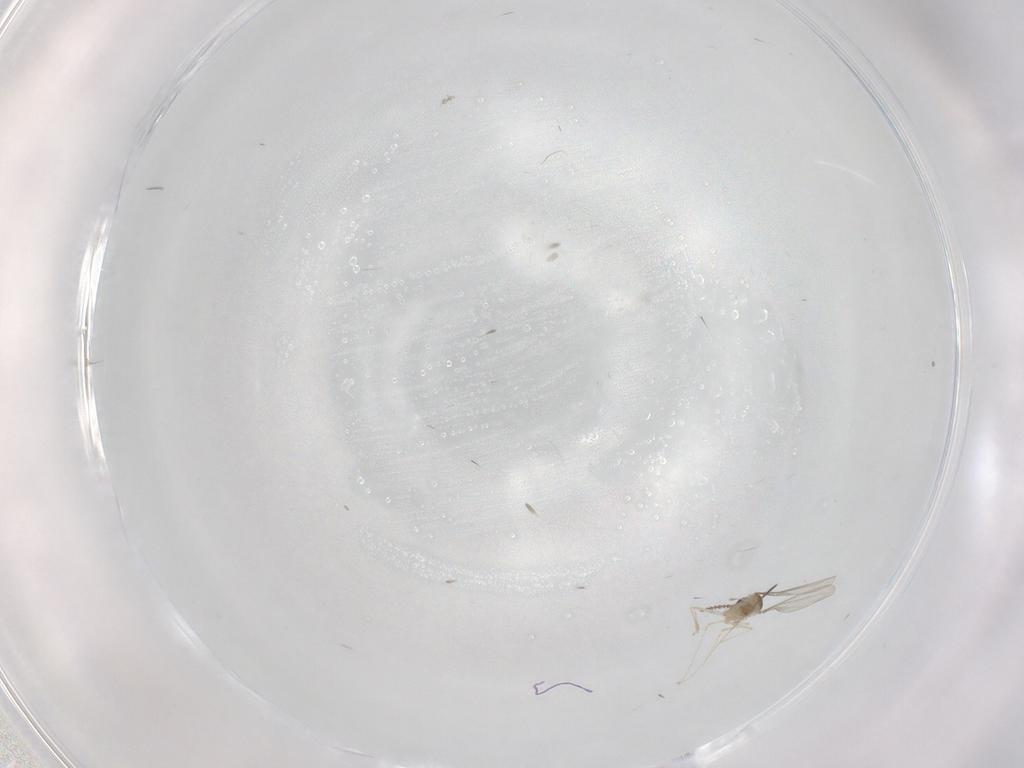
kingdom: Animalia
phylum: Arthropoda
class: Insecta
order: Diptera
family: Cecidomyiidae
